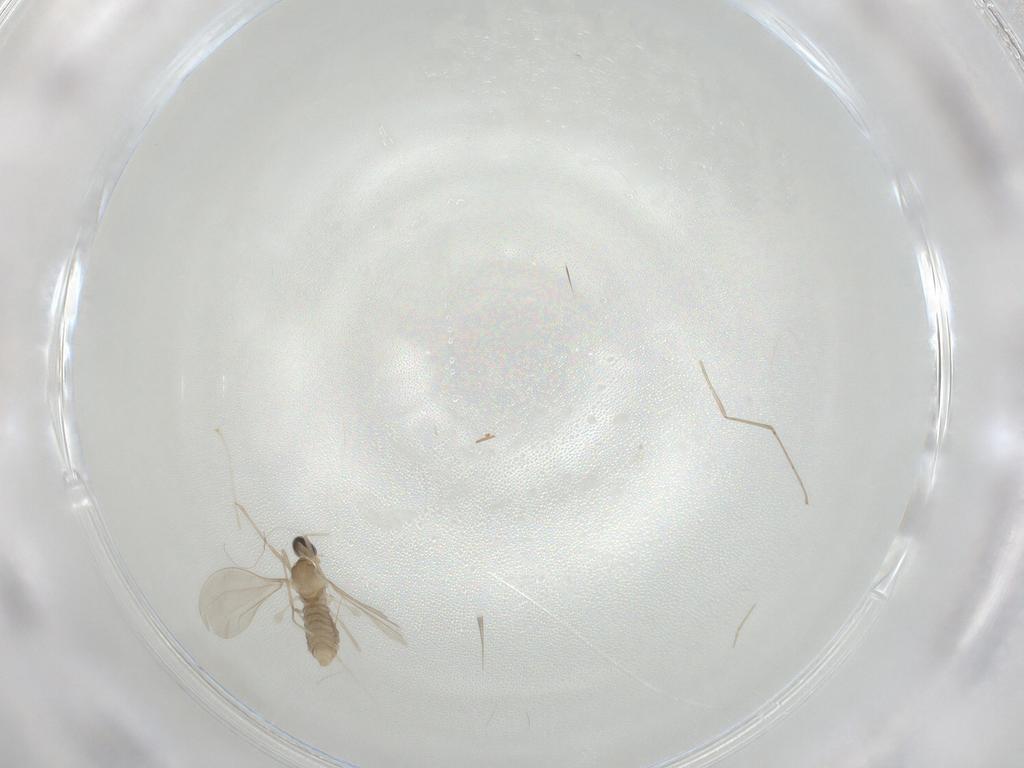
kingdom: Animalia
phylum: Arthropoda
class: Insecta
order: Diptera
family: Cecidomyiidae
